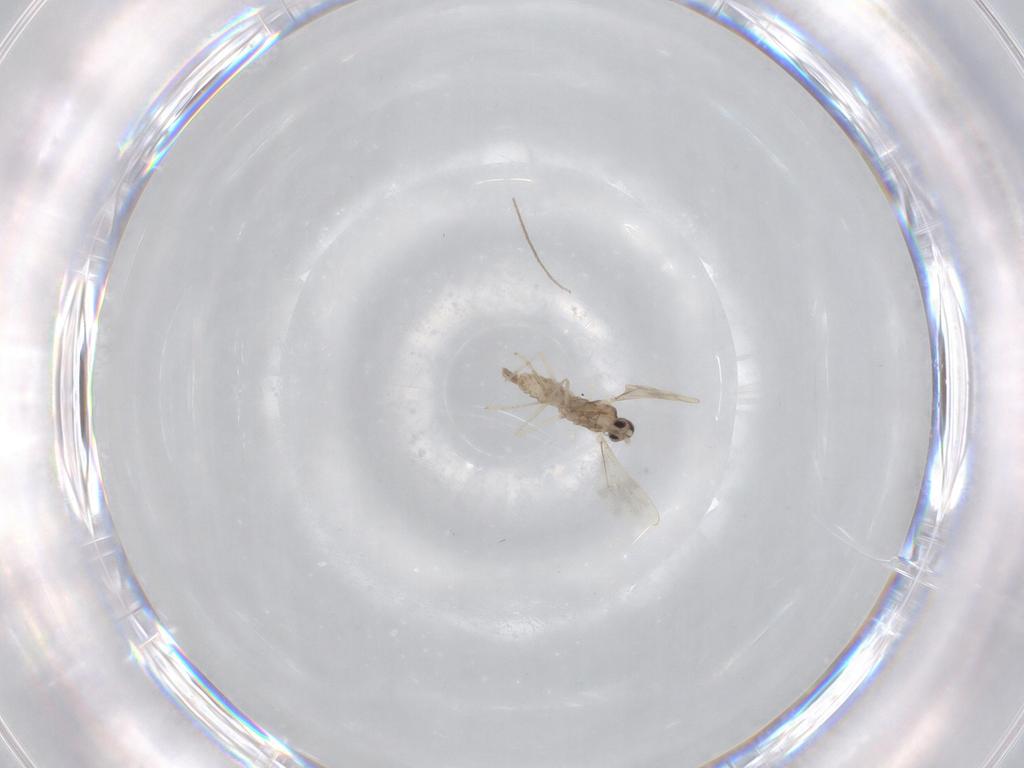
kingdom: Animalia
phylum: Arthropoda
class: Insecta
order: Diptera
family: Cecidomyiidae
